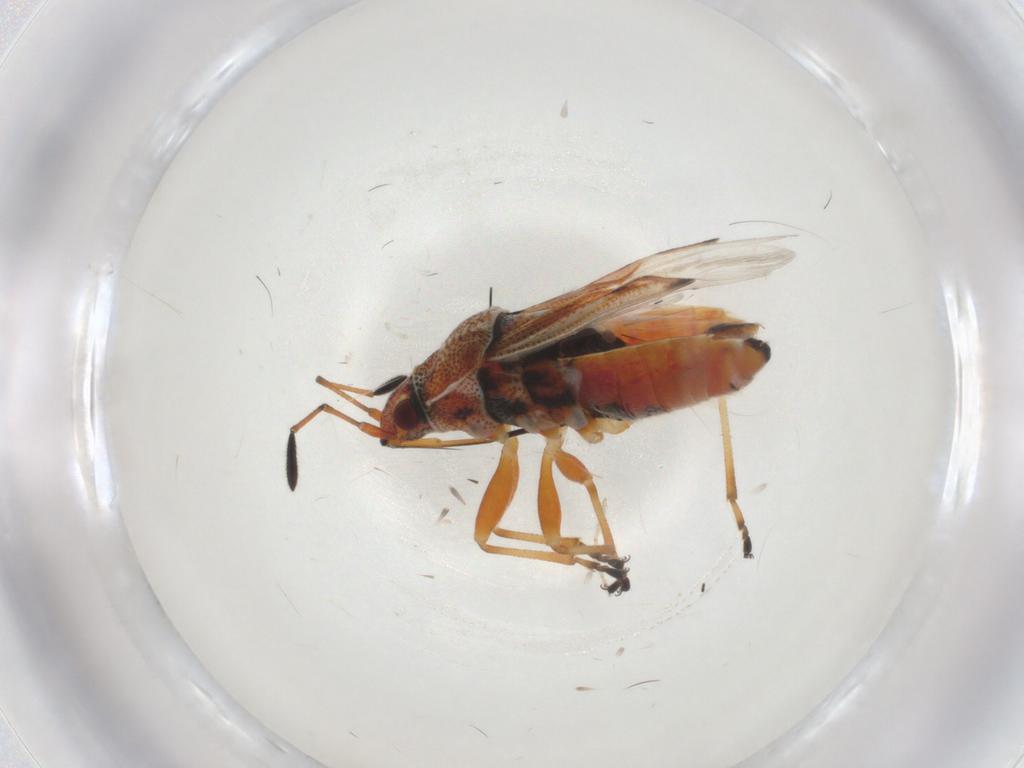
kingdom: Animalia
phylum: Arthropoda
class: Insecta
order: Hemiptera
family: Lygaeidae
